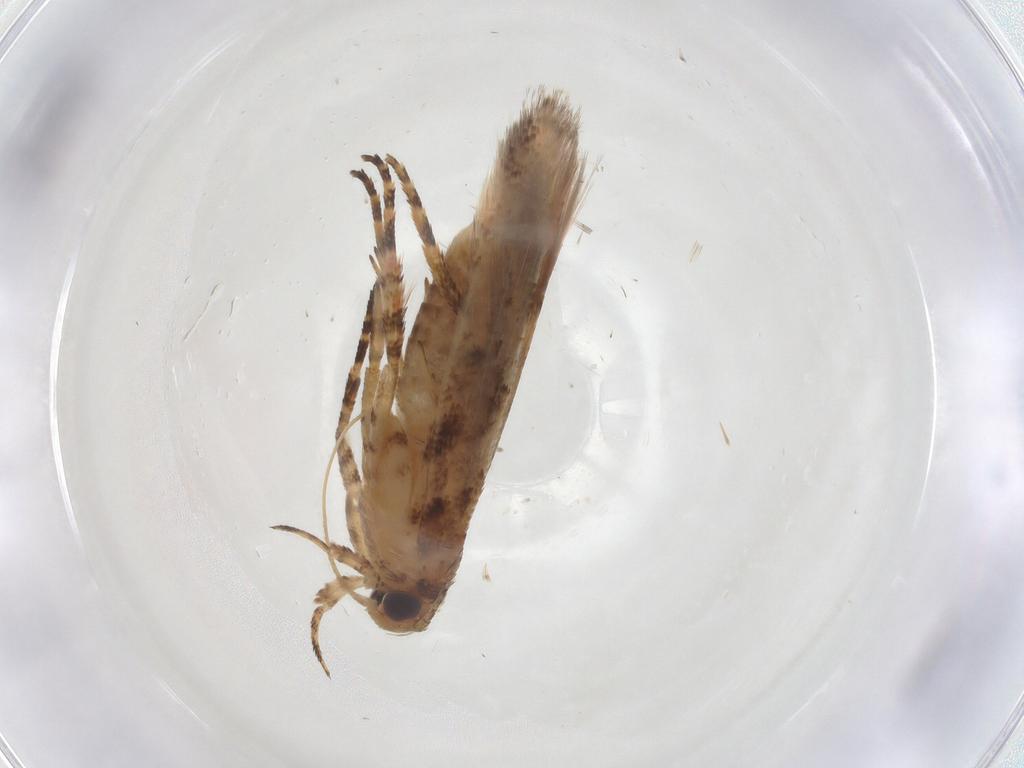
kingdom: Animalia
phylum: Arthropoda
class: Insecta
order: Lepidoptera
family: Gelechiidae
